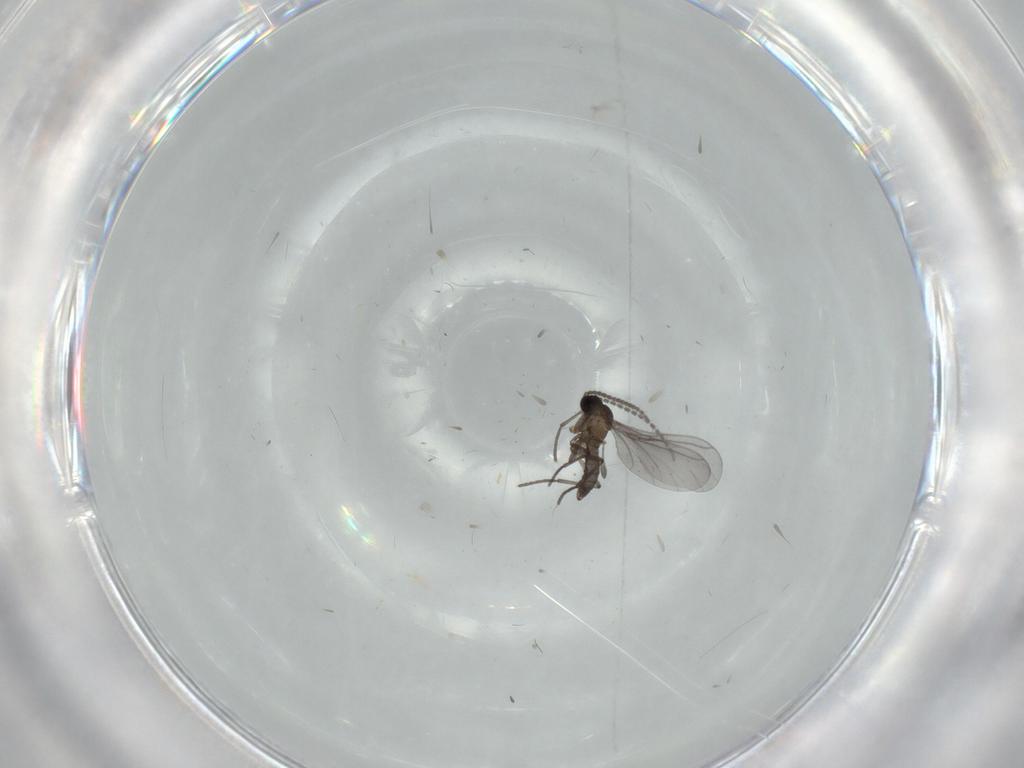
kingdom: Animalia
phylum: Arthropoda
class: Insecta
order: Diptera
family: Sciaridae
